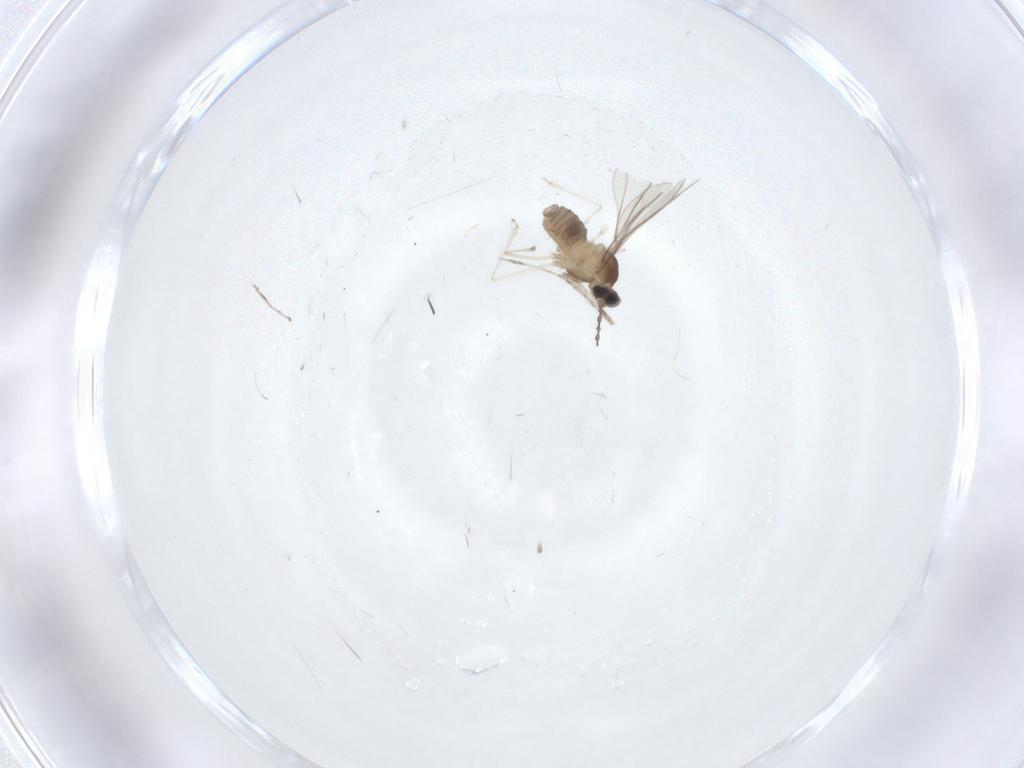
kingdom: Animalia
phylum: Arthropoda
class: Insecta
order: Diptera
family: Cecidomyiidae
